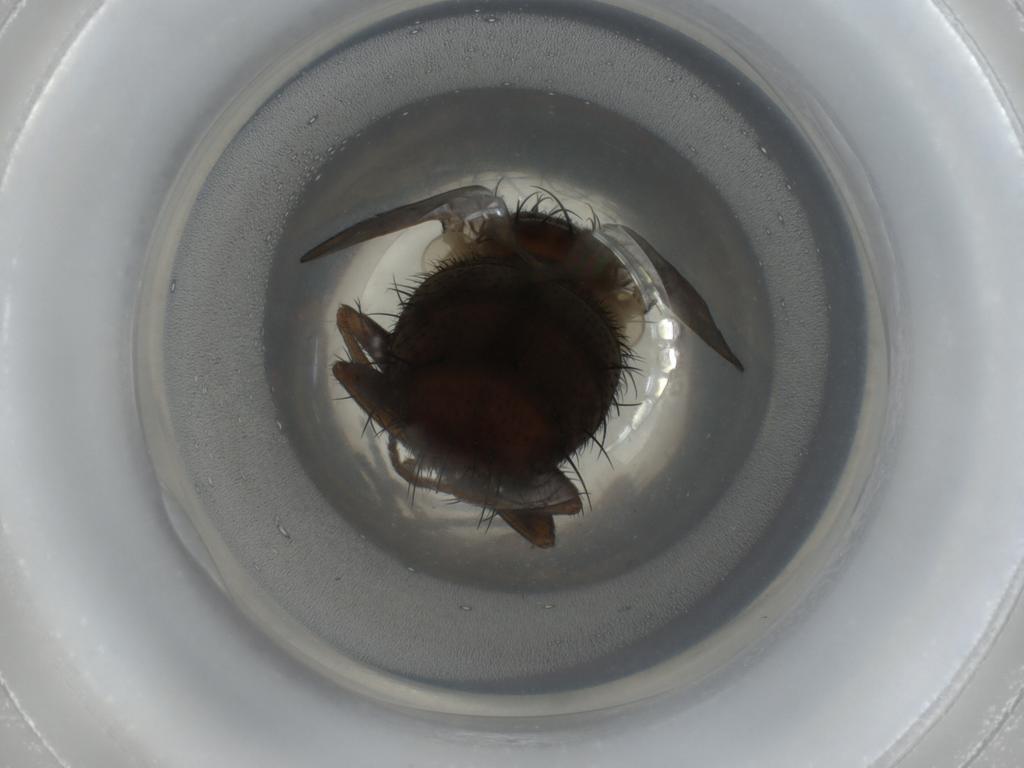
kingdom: Animalia
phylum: Arthropoda
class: Insecta
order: Diptera
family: Tachinidae
